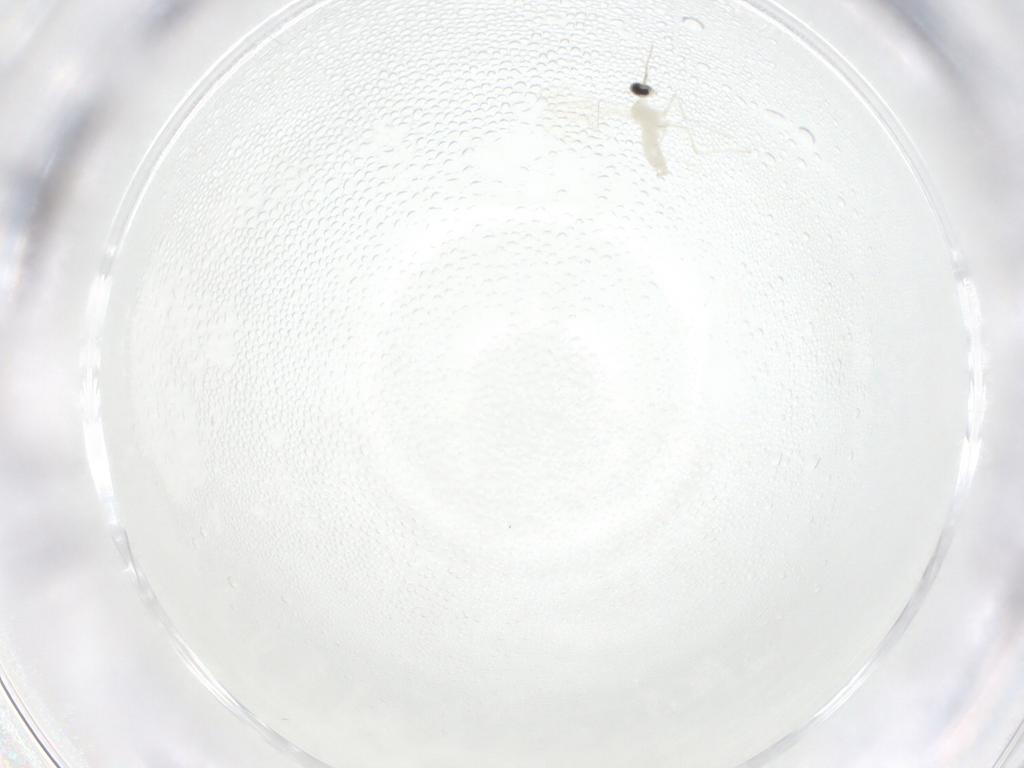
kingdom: Animalia
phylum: Arthropoda
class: Insecta
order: Diptera
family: Cecidomyiidae
